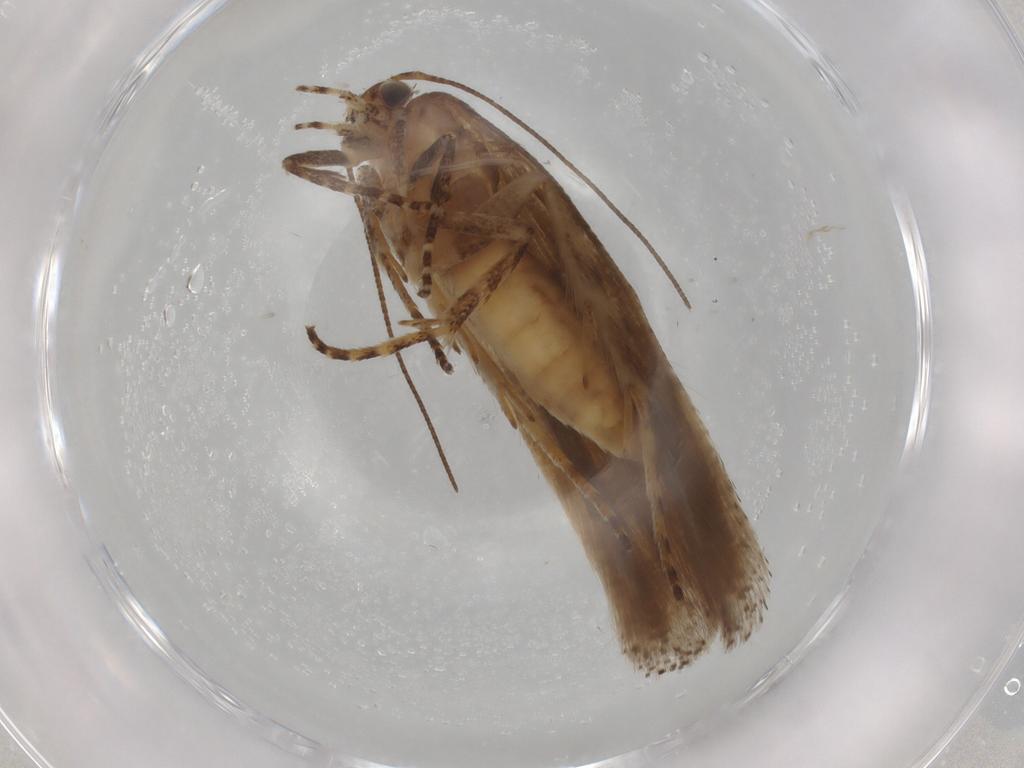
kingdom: Animalia
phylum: Arthropoda
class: Insecta
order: Lepidoptera
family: Gelechiidae
